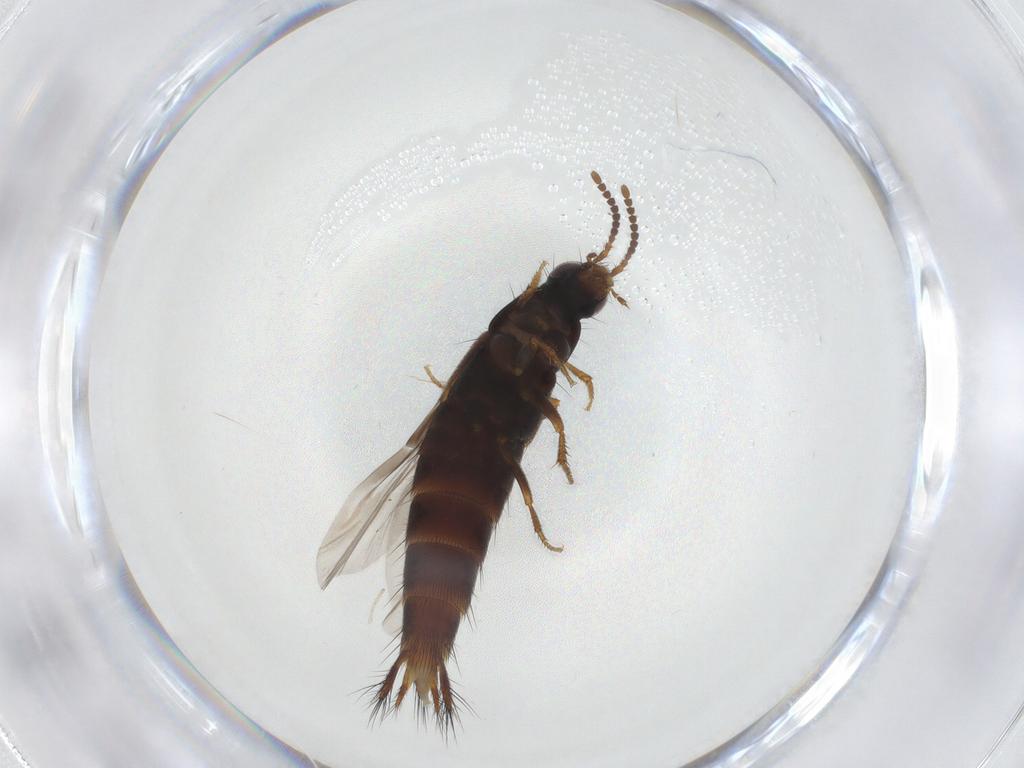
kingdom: Animalia
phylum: Arthropoda
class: Insecta
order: Coleoptera
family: Staphylinidae
